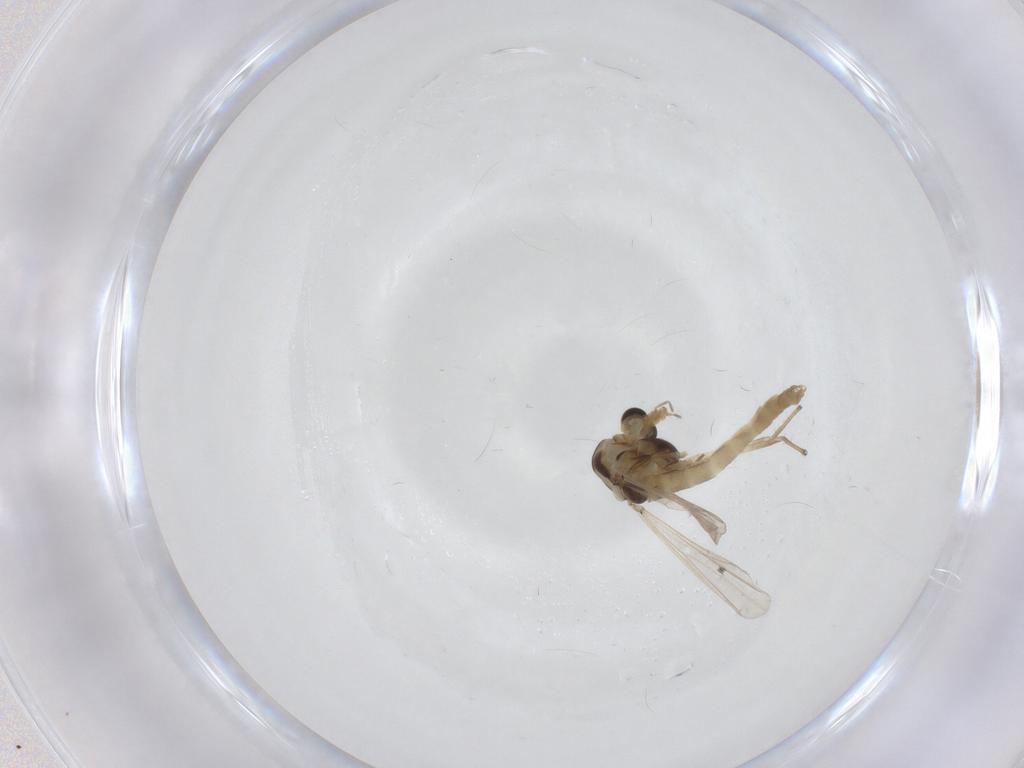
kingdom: Animalia
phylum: Arthropoda
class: Insecta
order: Diptera
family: Chironomidae
